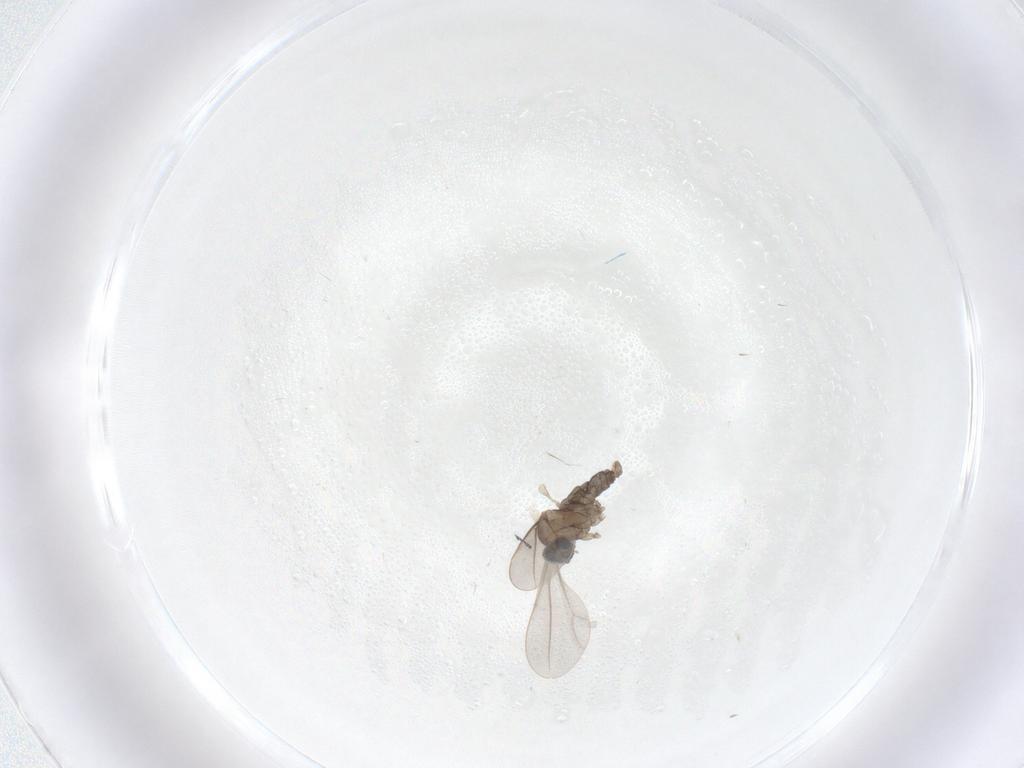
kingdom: Animalia
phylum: Arthropoda
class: Insecta
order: Diptera
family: Cecidomyiidae
